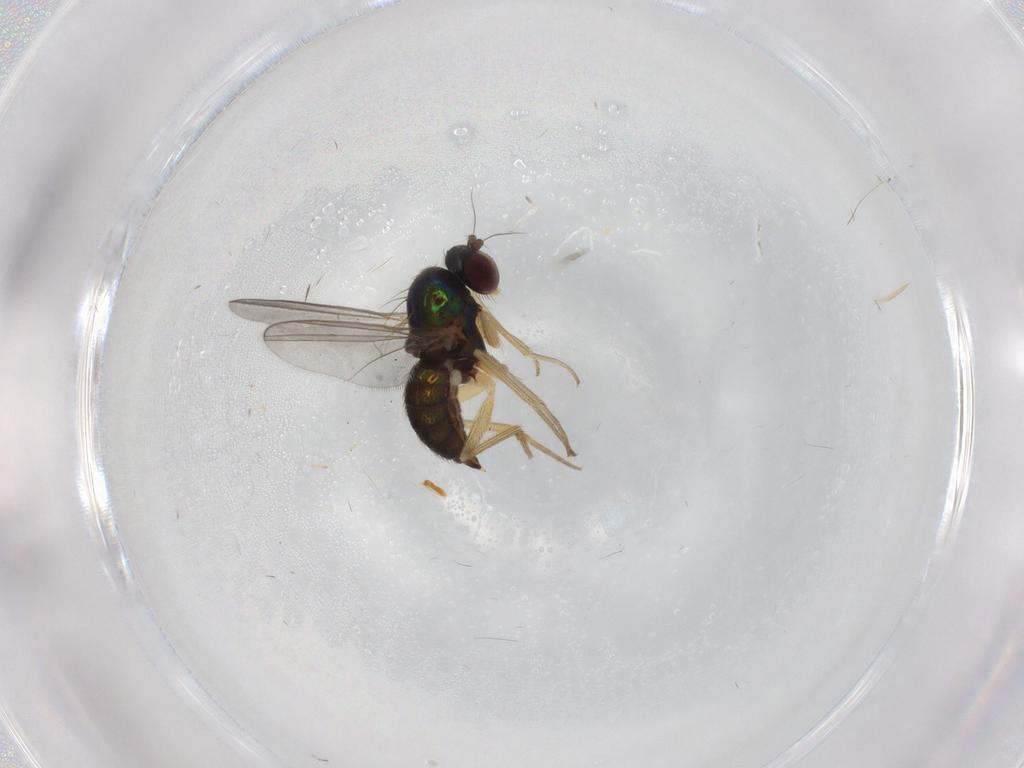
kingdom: Animalia
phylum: Arthropoda
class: Insecta
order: Diptera
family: Dolichopodidae
